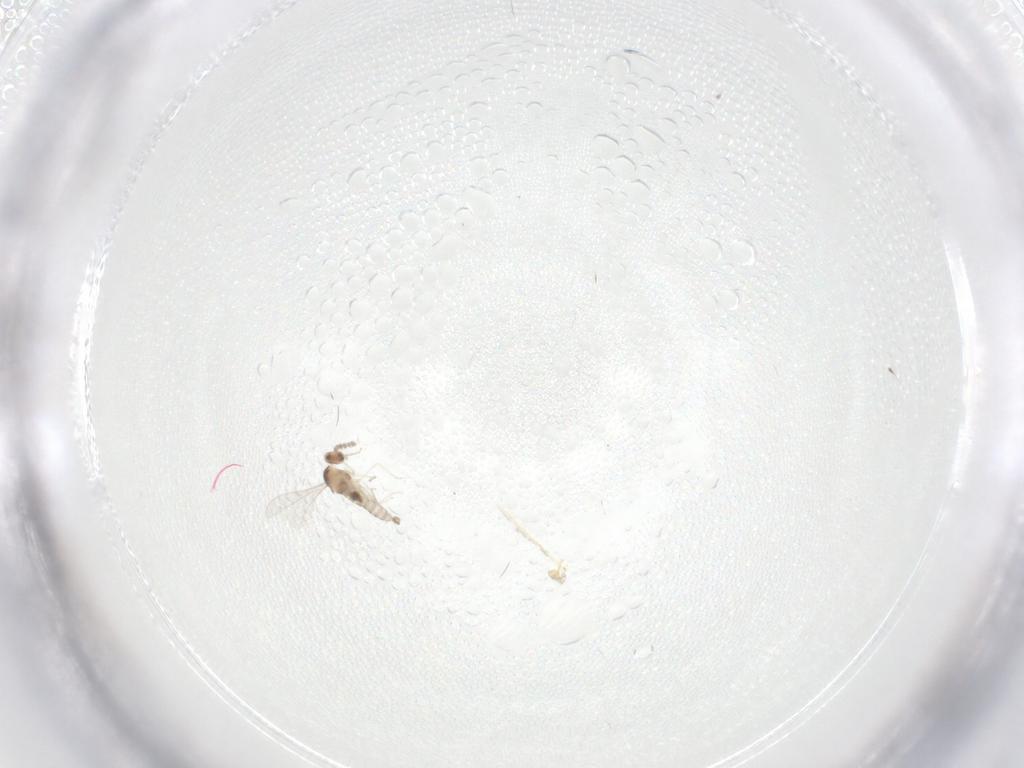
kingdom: Animalia
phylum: Arthropoda
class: Insecta
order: Diptera
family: Cecidomyiidae
